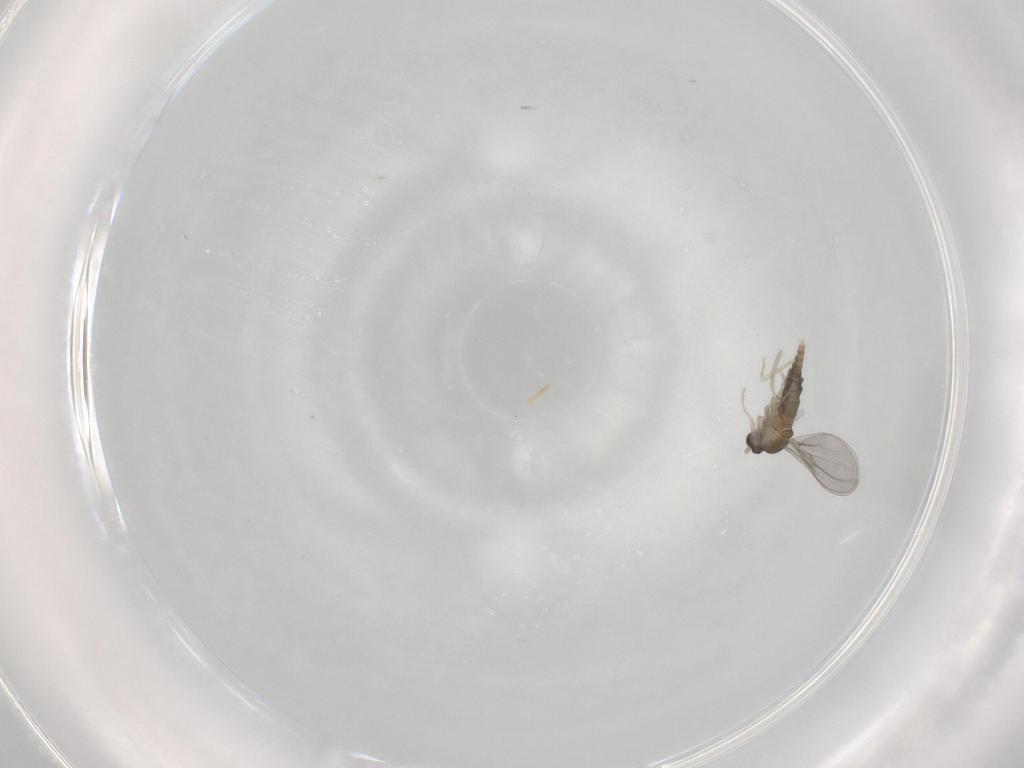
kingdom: Animalia
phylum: Arthropoda
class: Insecta
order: Diptera
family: Cecidomyiidae
